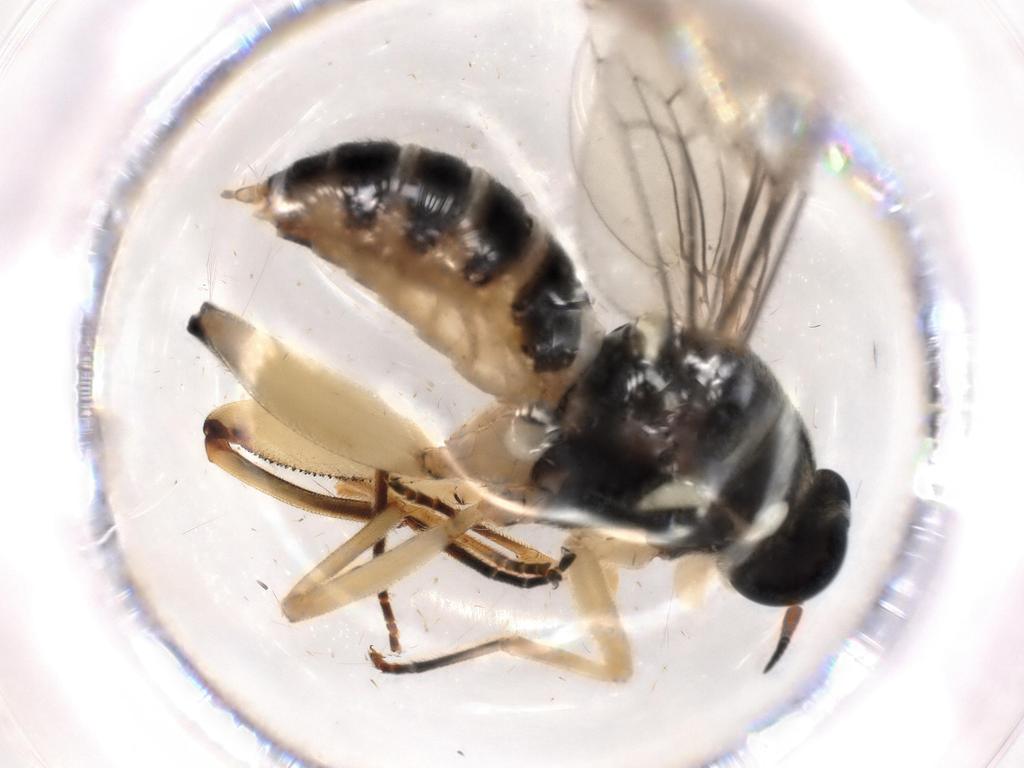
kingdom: Animalia
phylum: Arthropoda
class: Insecta
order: Diptera
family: Cecidomyiidae
